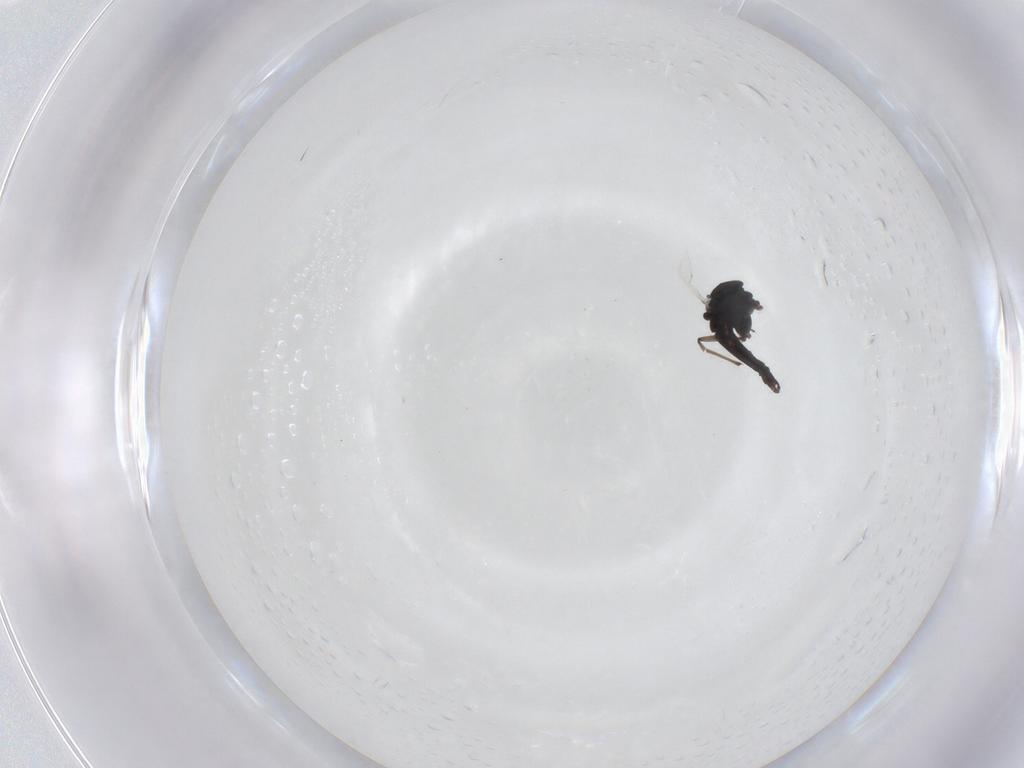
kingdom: Animalia
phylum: Arthropoda
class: Insecta
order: Diptera
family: Chironomidae
